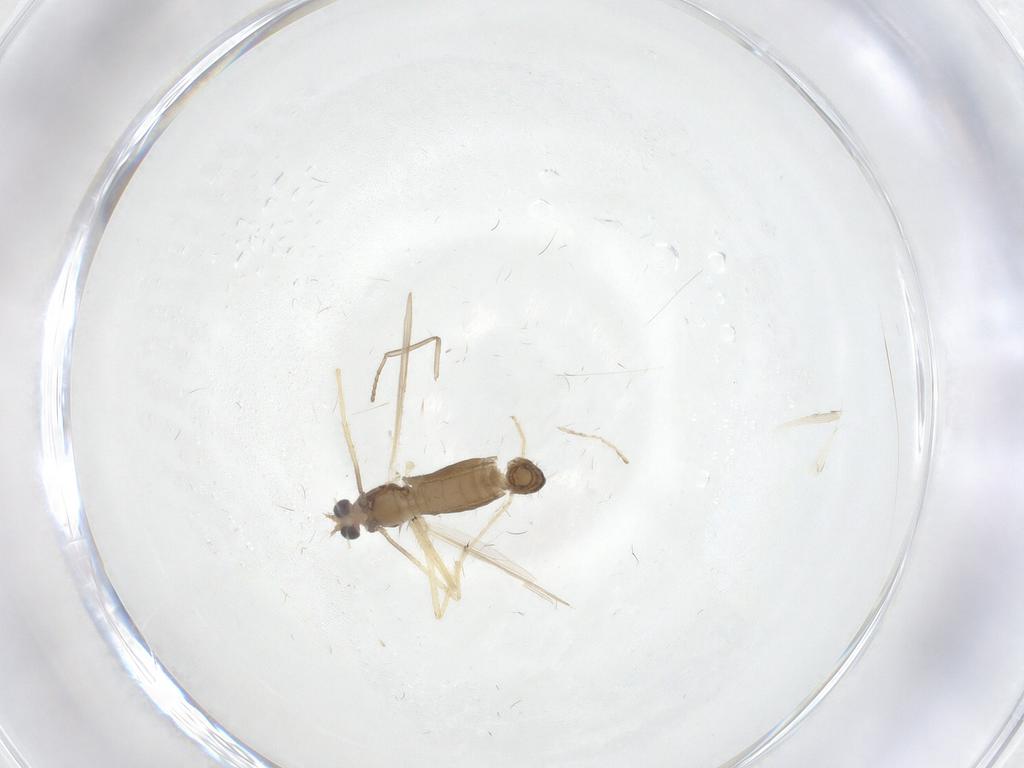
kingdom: Animalia
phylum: Arthropoda
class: Insecta
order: Diptera
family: Chironomidae
